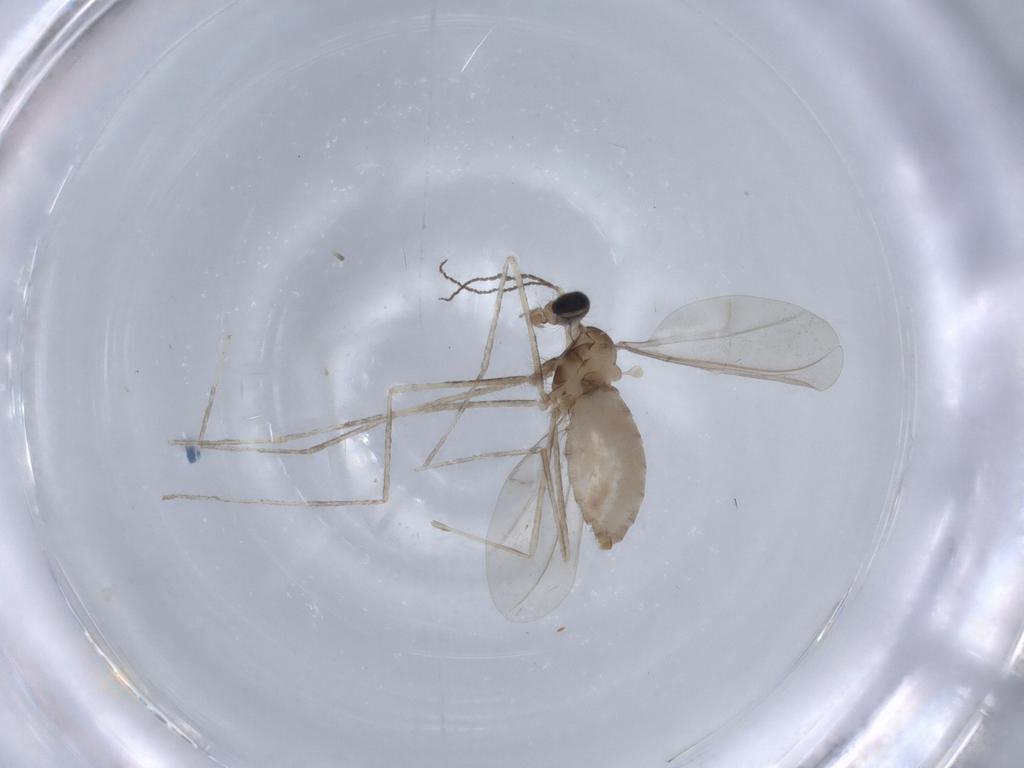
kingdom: Animalia
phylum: Arthropoda
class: Insecta
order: Diptera
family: Cecidomyiidae
